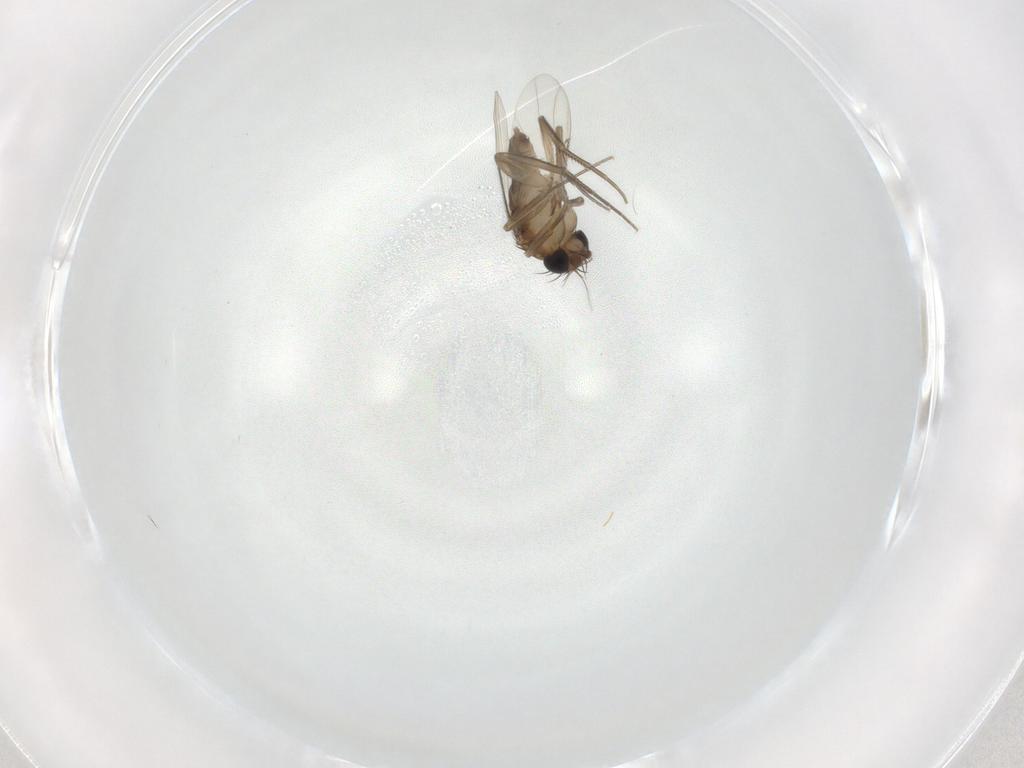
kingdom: Animalia
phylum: Arthropoda
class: Insecta
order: Diptera
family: Phoridae
